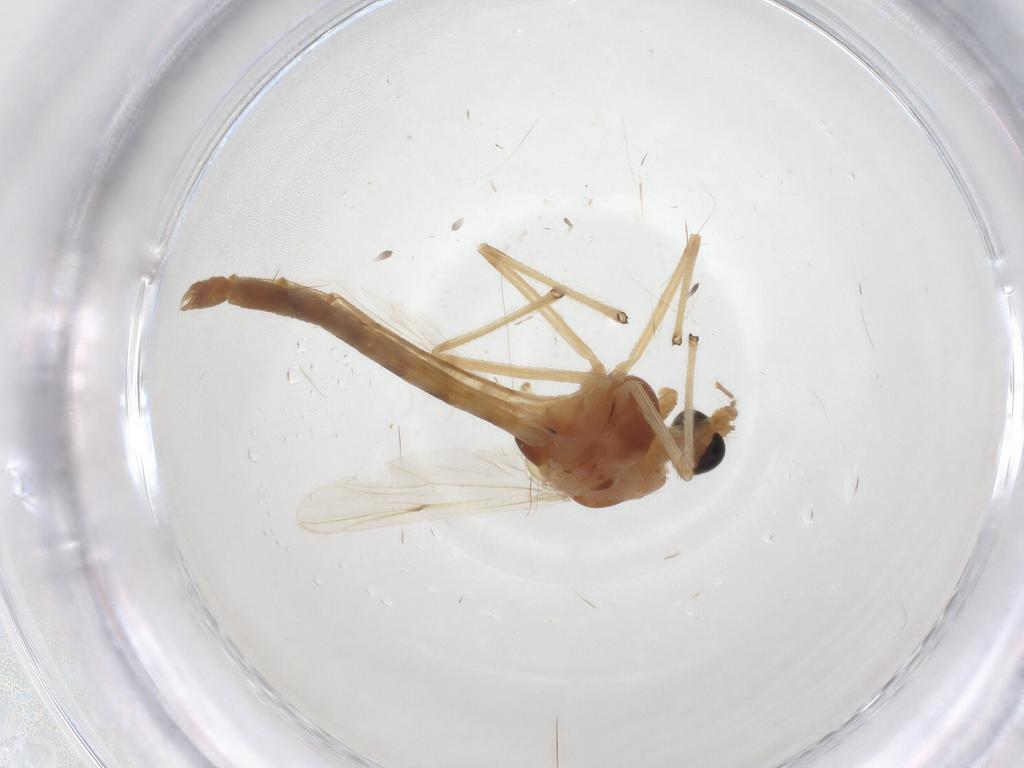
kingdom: Animalia
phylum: Arthropoda
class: Insecta
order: Diptera
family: Chironomidae
